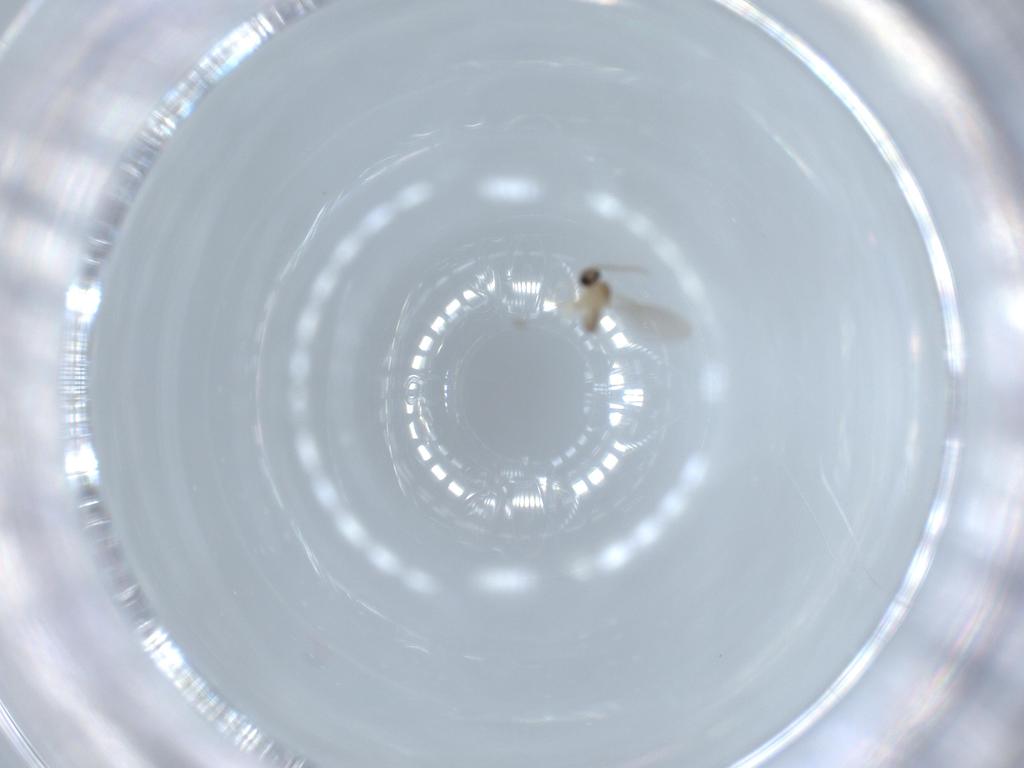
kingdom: Animalia
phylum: Arthropoda
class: Insecta
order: Diptera
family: Cecidomyiidae
